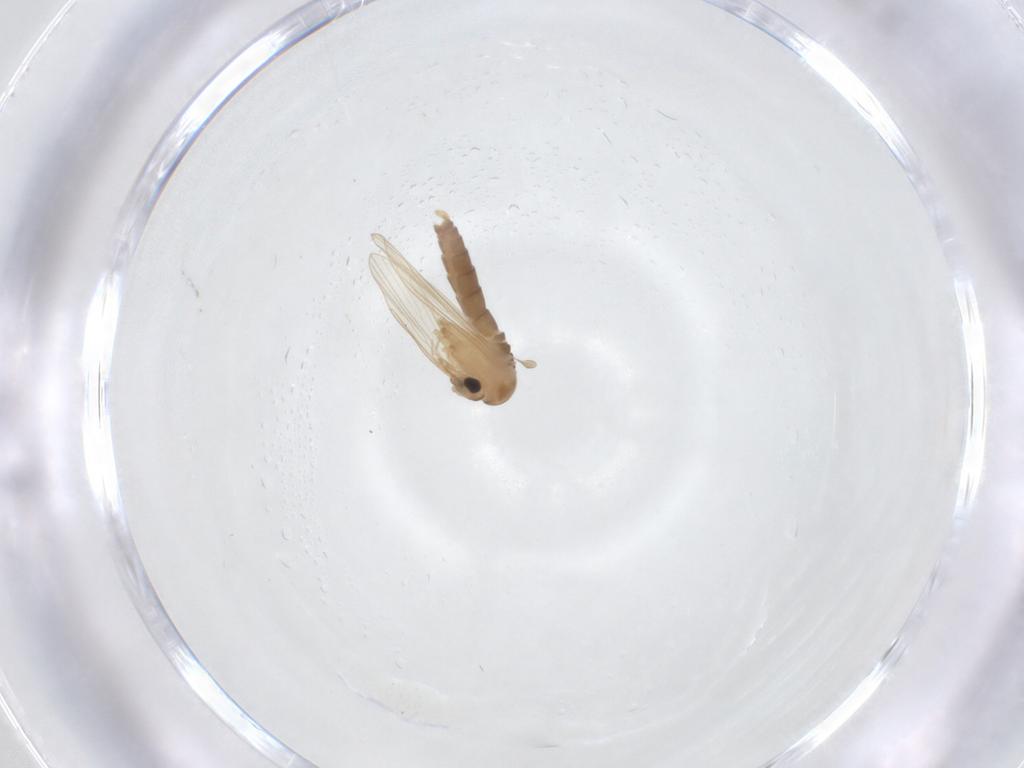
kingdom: Animalia
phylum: Arthropoda
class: Insecta
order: Diptera
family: Psychodidae
